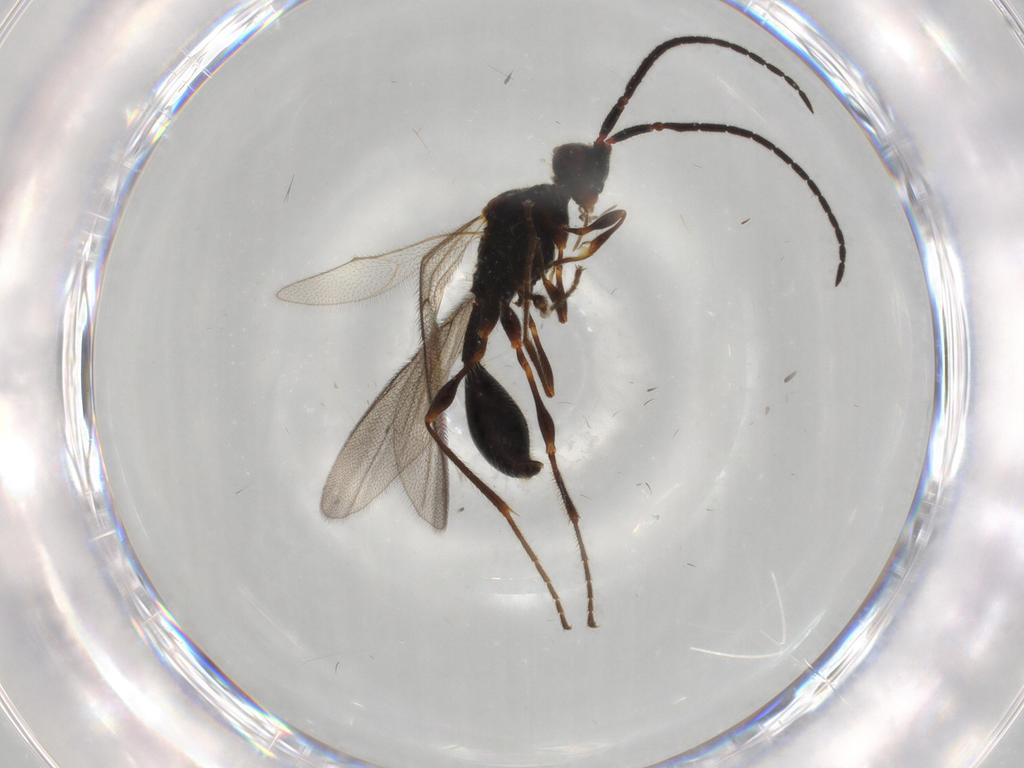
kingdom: Animalia
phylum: Arthropoda
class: Insecta
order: Hymenoptera
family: Diapriidae
